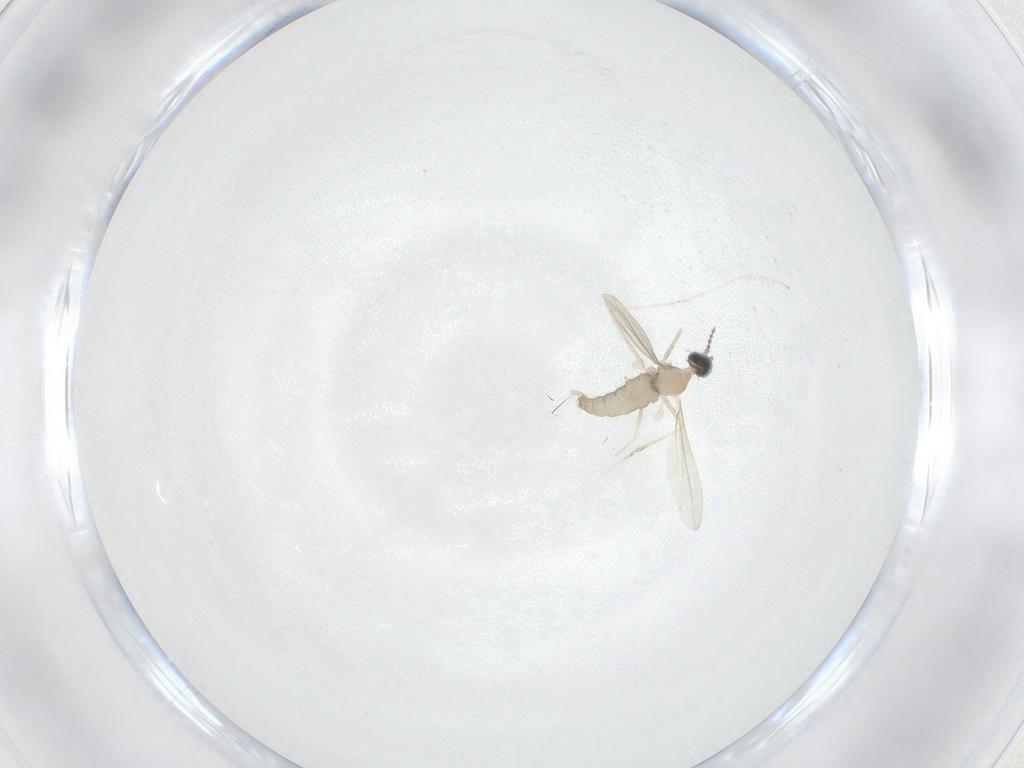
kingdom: Animalia
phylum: Arthropoda
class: Insecta
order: Diptera
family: Cecidomyiidae
